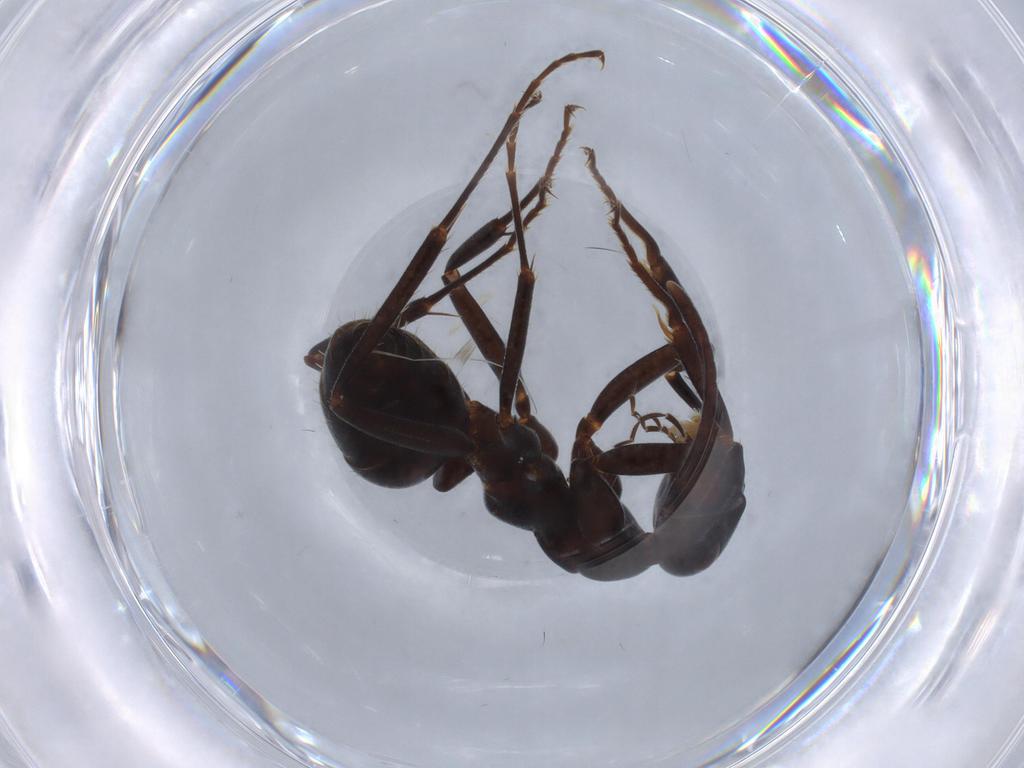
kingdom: Animalia
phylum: Arthropoda
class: Insecta
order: Hymenoptera
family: Formicidae
